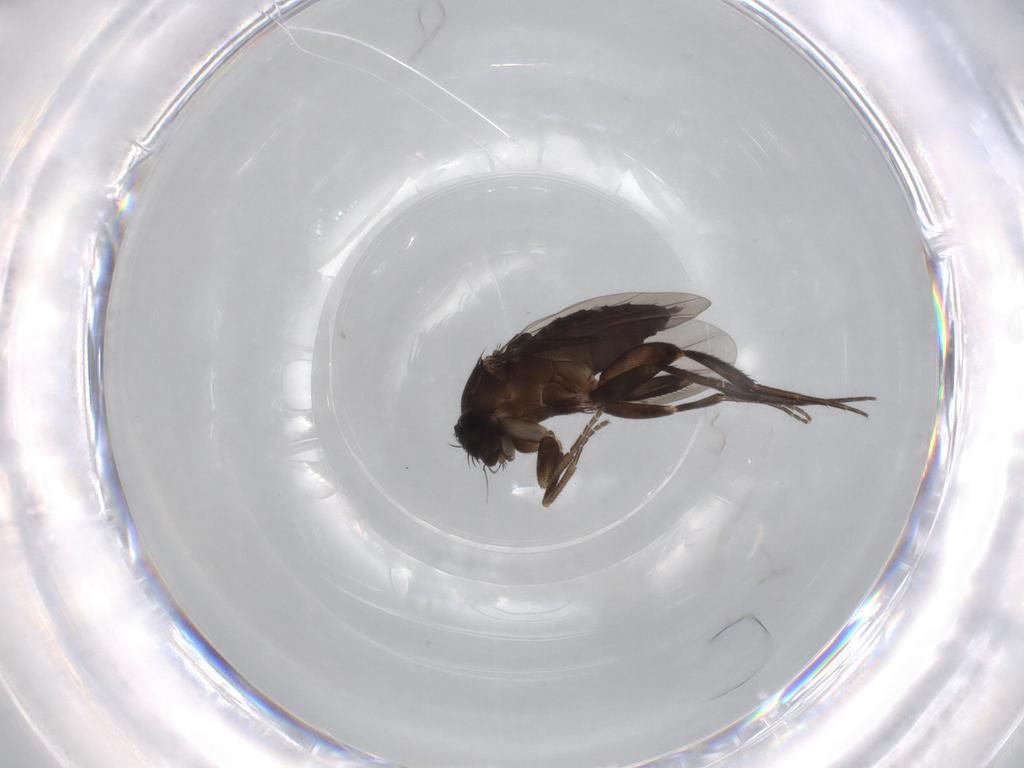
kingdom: Animalia
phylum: Arthropoda
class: Insecta
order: Diptera
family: Phoridae
